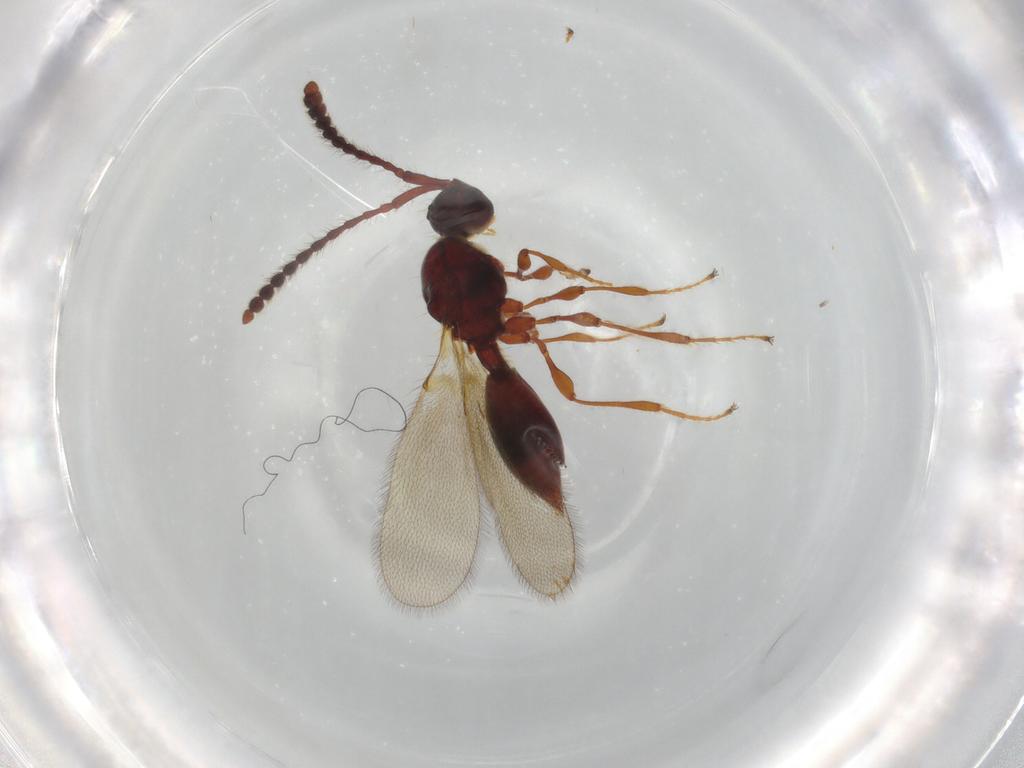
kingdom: Animalia
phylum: Arthropoda
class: Insecta
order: Hymenoptera
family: Diapriidae
